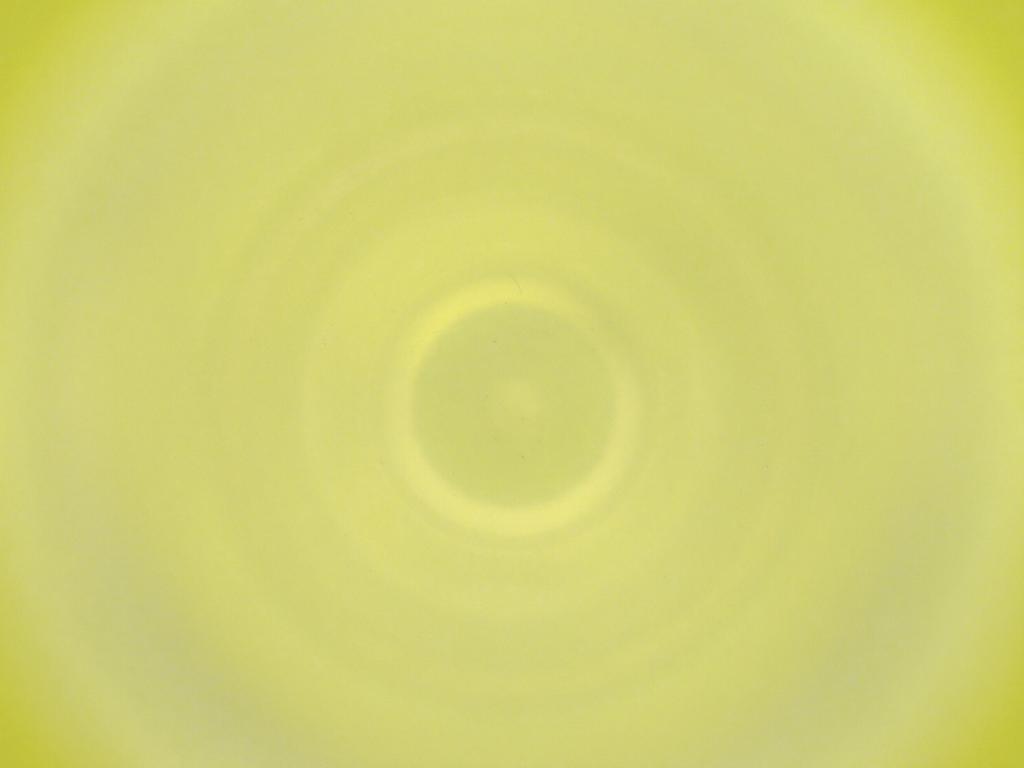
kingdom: Animalia
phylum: Arthropoda
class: Insecta
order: Diptera
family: Cecidomyiidae
